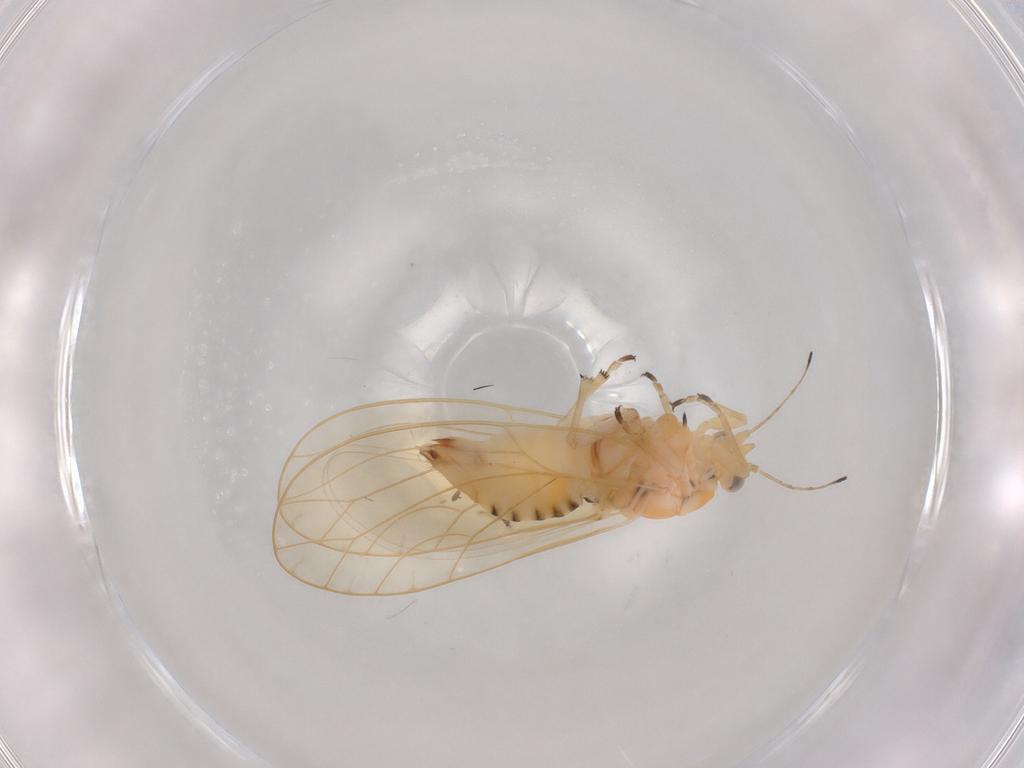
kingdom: Animalia
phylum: Arthropoda
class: Insecta
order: Hemiptera
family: Triozidae
